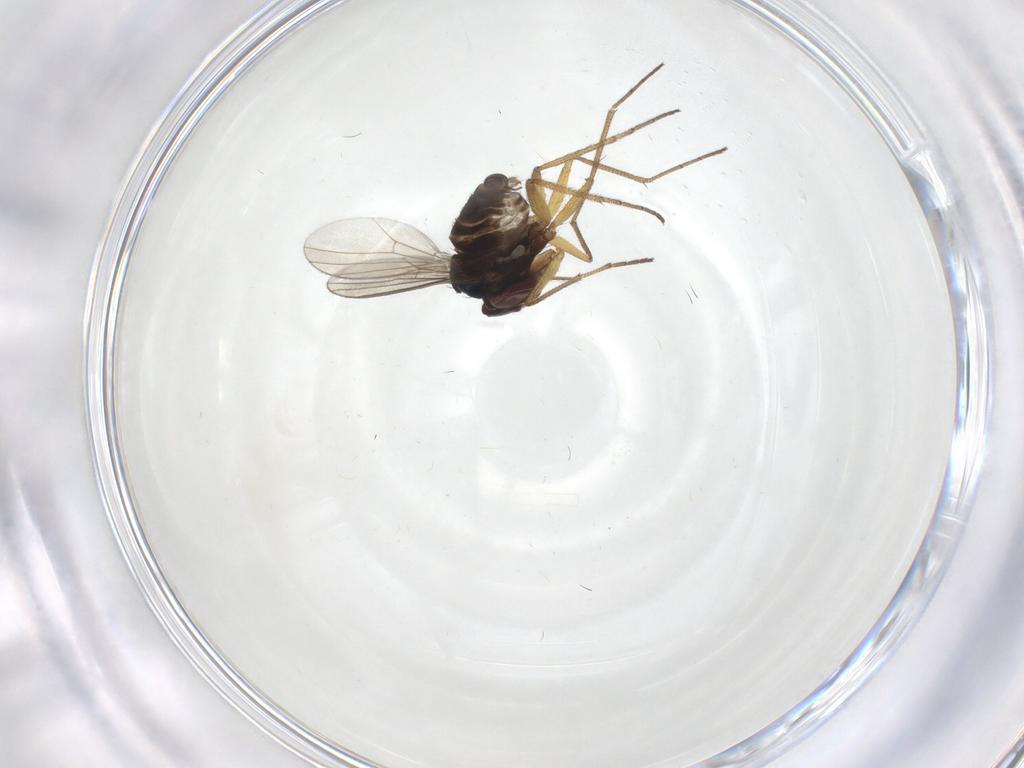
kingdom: Animalia
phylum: Arthropoda
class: Insecta
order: Diptera
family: Dolichopodidae
